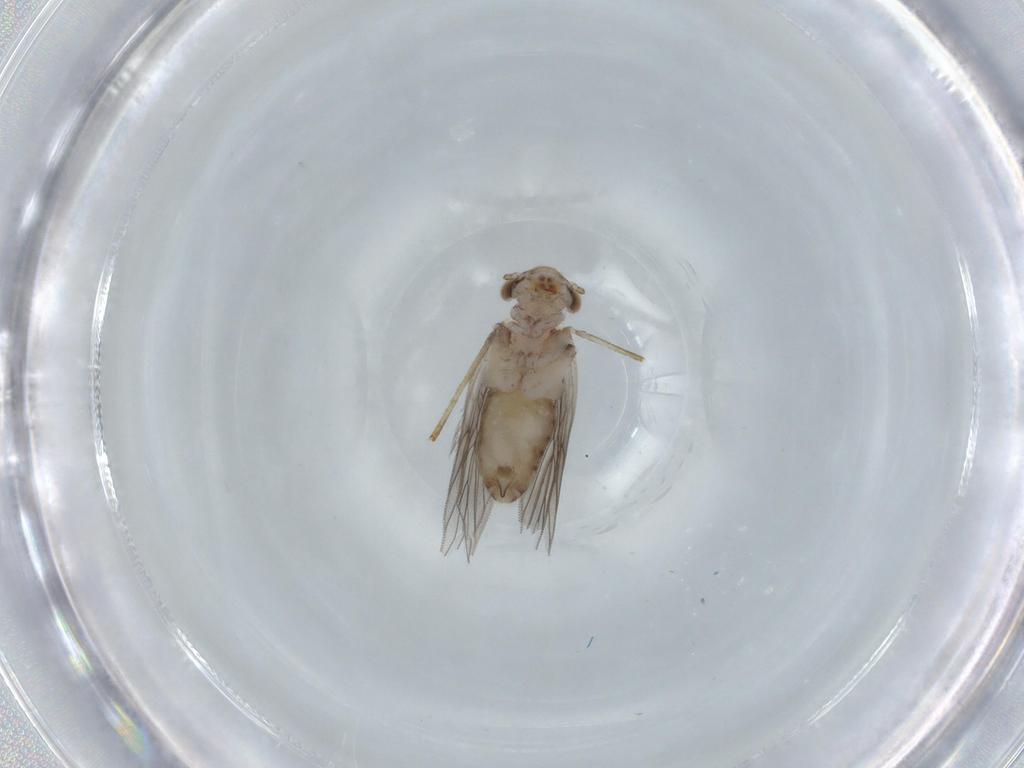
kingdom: Animalia
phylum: Arthropoda
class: Insecta
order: Psocodea
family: Lepidopsocidae
